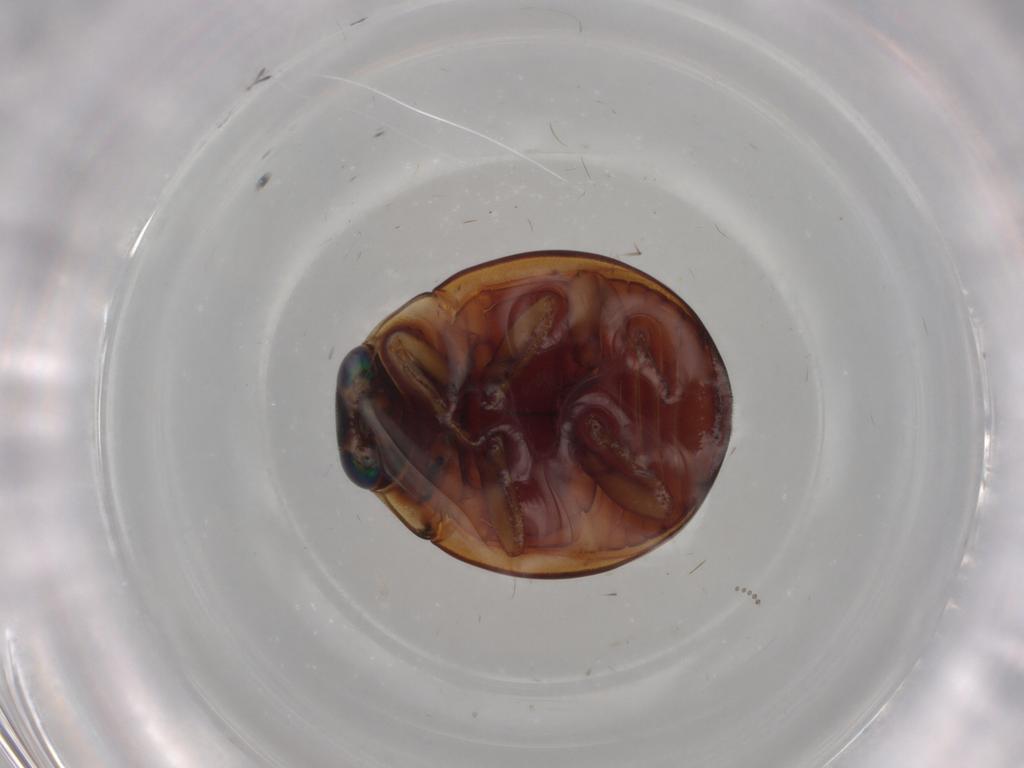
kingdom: Animalia
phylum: Arthropoda
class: Insecta
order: Coleoptera
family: Coccinellidae
